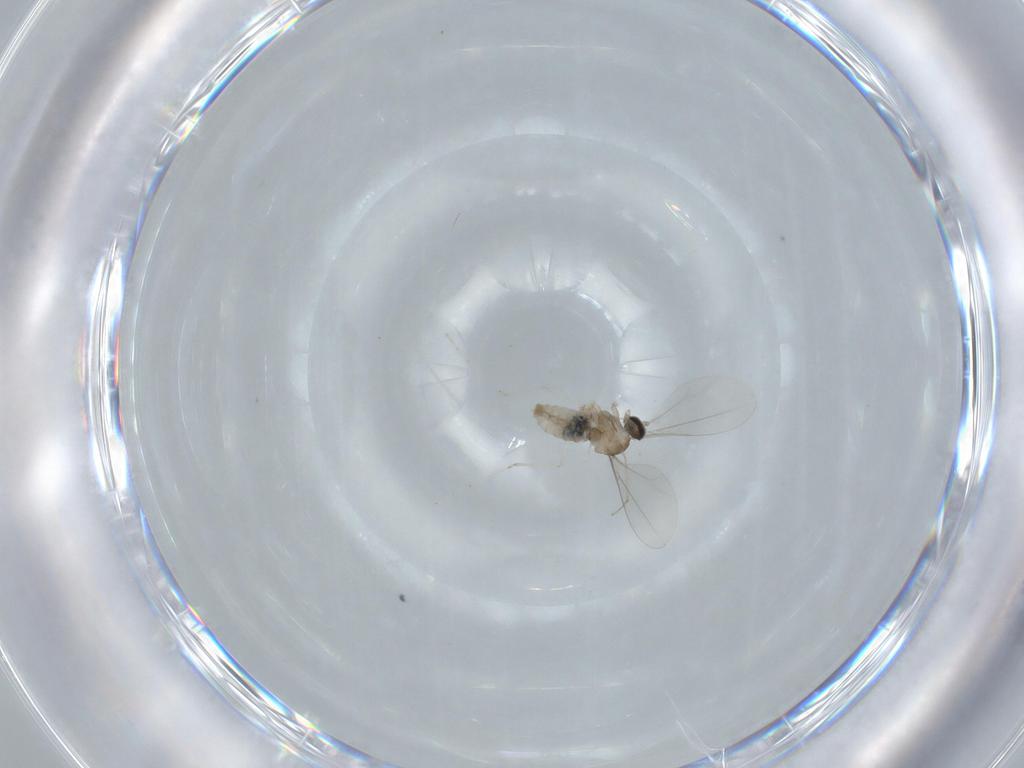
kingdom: Animalia
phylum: Arthropoda
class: Insecta
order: Diptera
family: Cecidomyiidae
